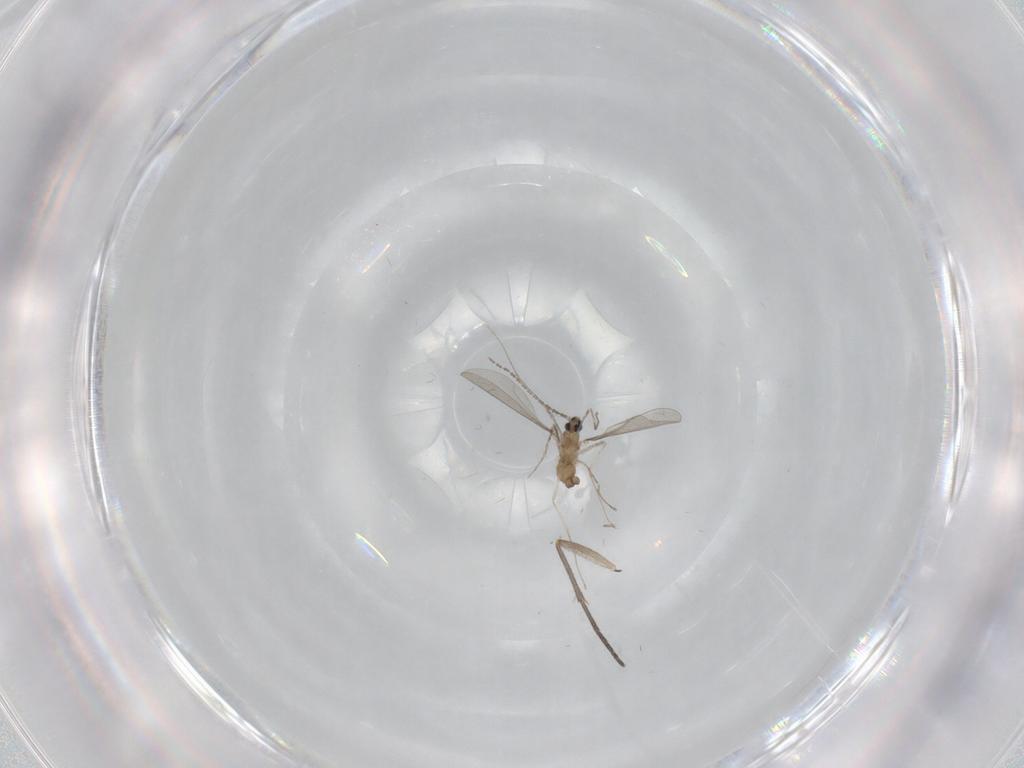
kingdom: Animalia
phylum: Arthropoda
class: Insecta
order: Diptera
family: Cecidomyiidae
